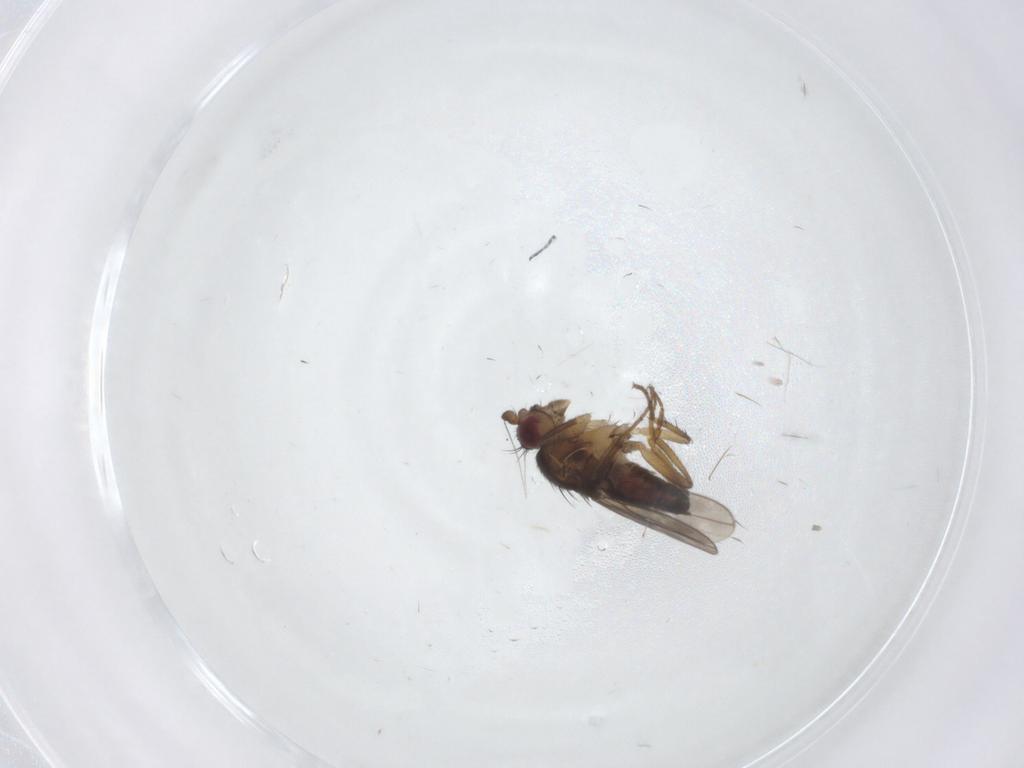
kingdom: Animalia
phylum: Arthropoda
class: Insecta
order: Diptera
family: Sphaeroceridae
